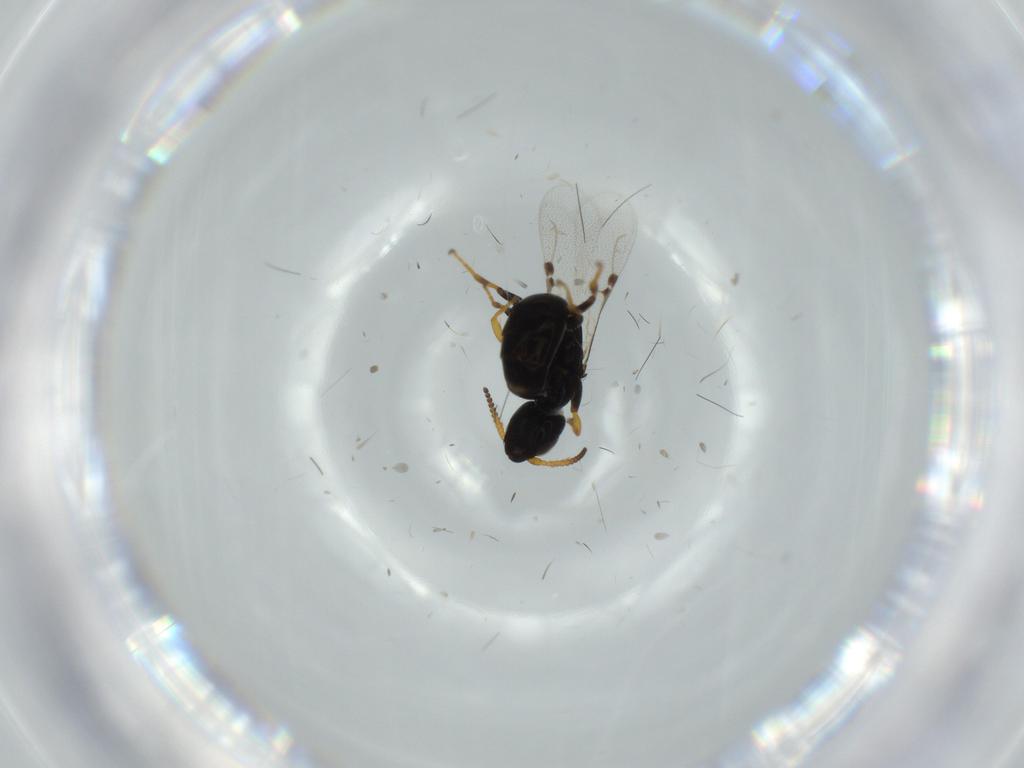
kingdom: Animalia
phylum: Arthropoda
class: Insecta
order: Hymenoptera
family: Bethylidae
